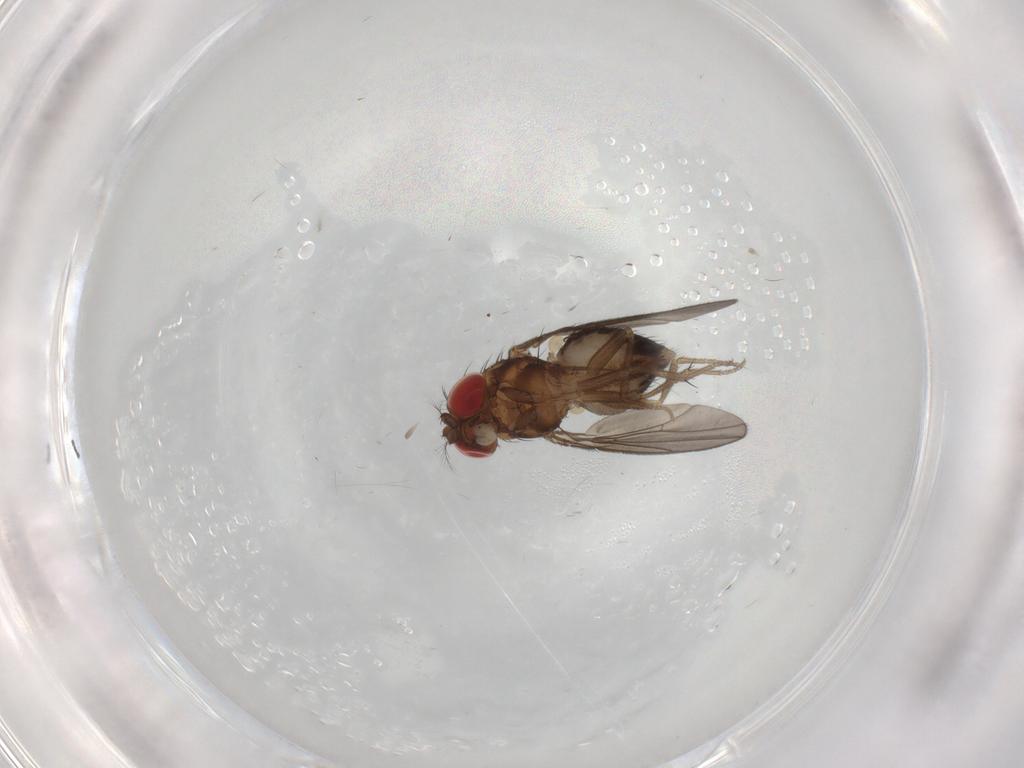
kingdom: Animalia
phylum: Arthropoda
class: Insecta
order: Diptera
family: Drosophilidae
